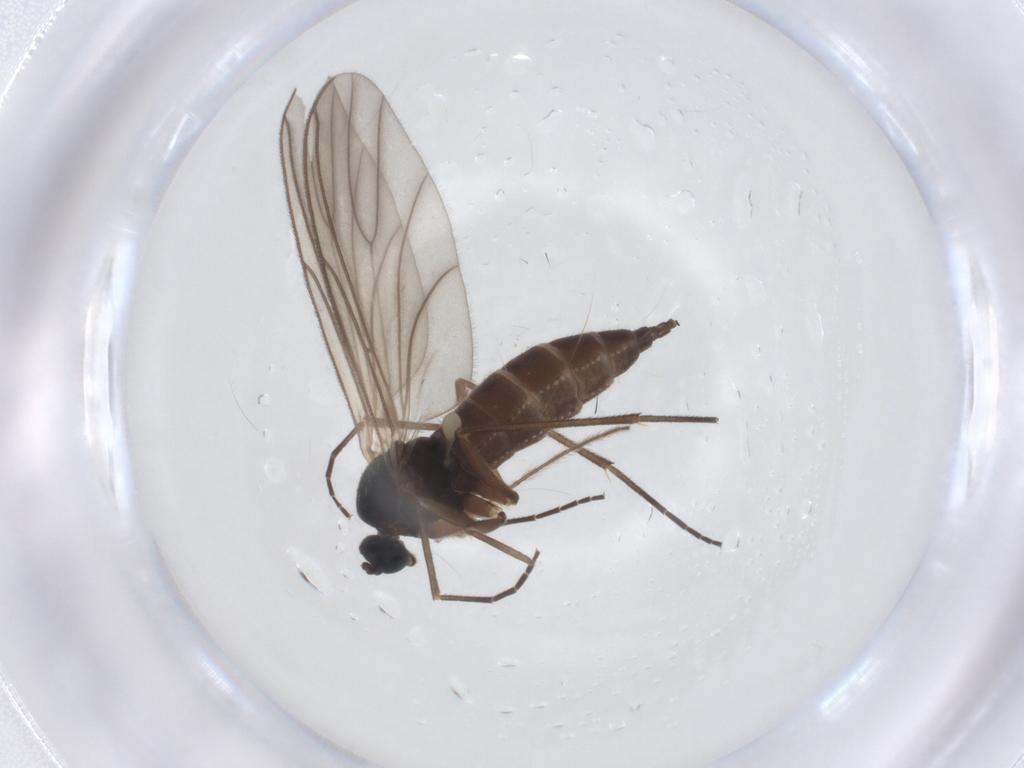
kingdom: Animalia
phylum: Arthropoda
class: Insecta
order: Diptera
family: Sciaridae
